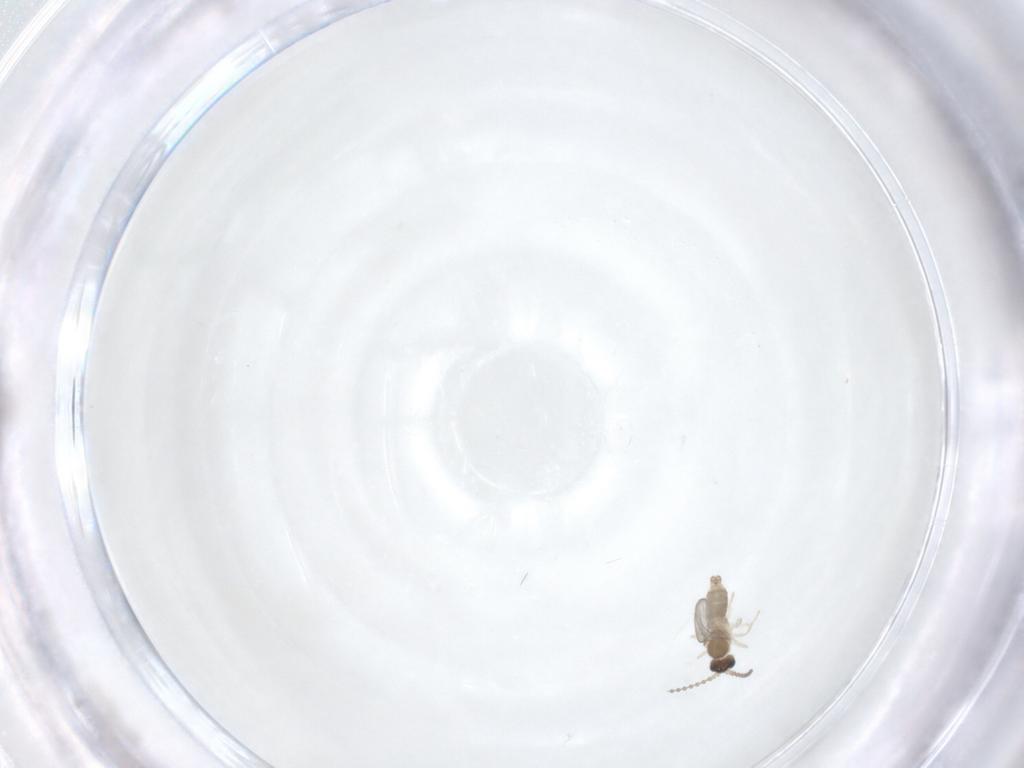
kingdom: Animalia
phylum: Arthropoda
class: Insecta
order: Diptera
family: Cecidomyiidae
